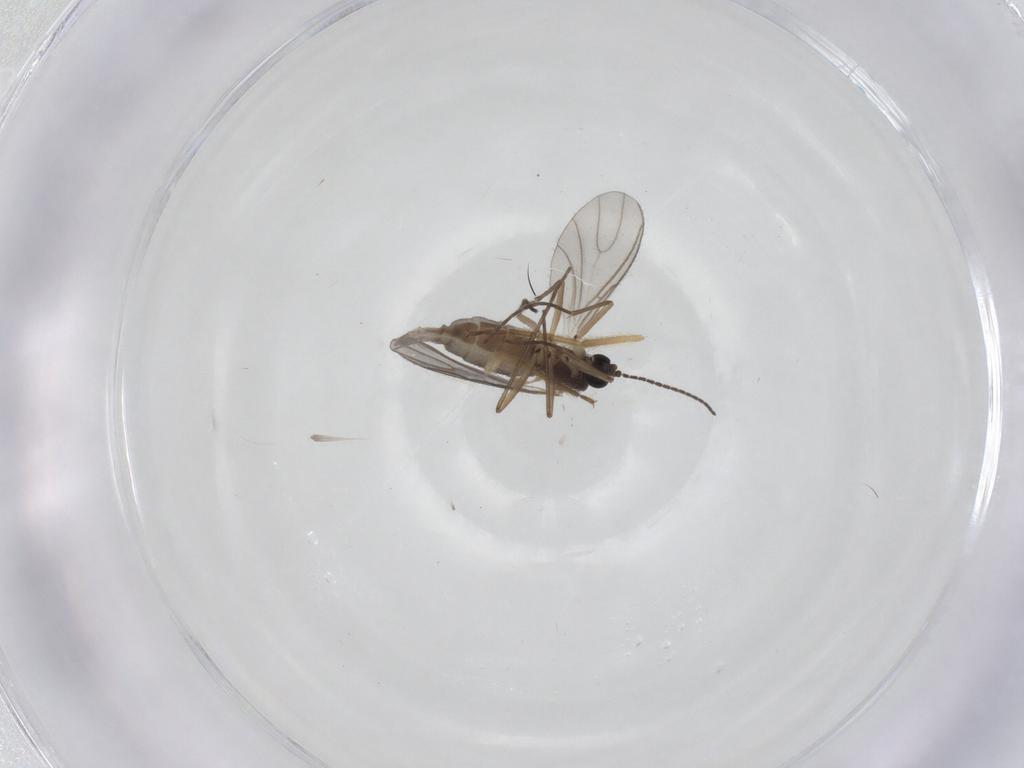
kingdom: Animalia
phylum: Arthropoda
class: Insecta
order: Diptera
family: Sciaridae
